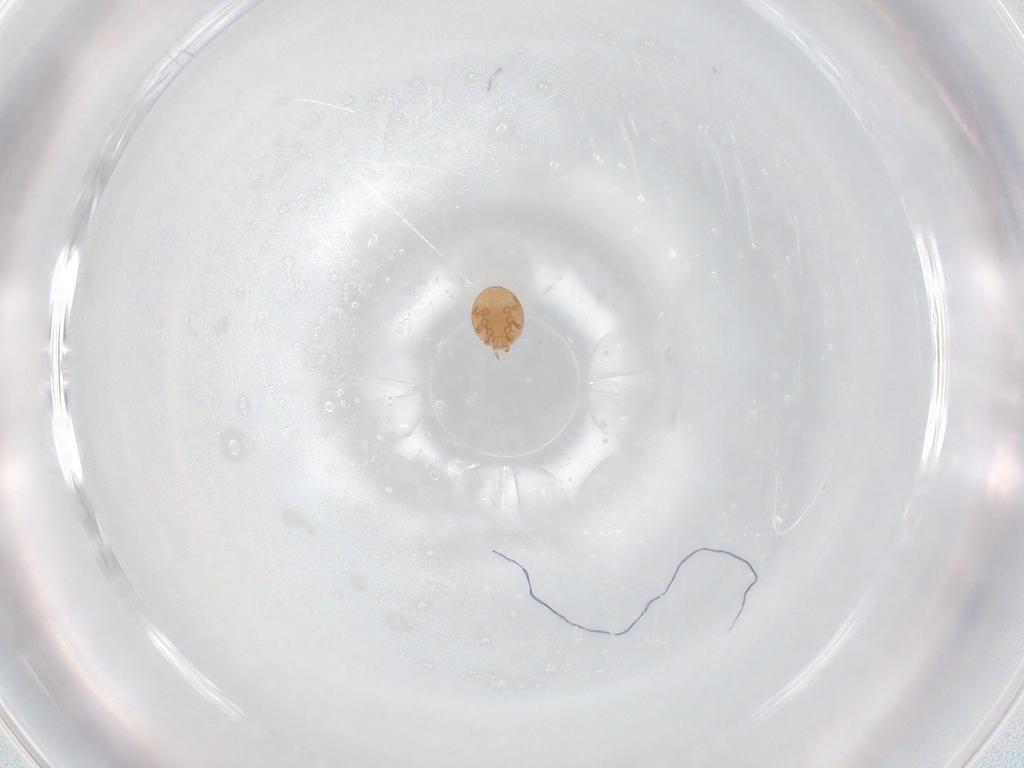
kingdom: Animalia
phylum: Arthropoda
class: Arachnida
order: Mesostigmata
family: Trematuridae
